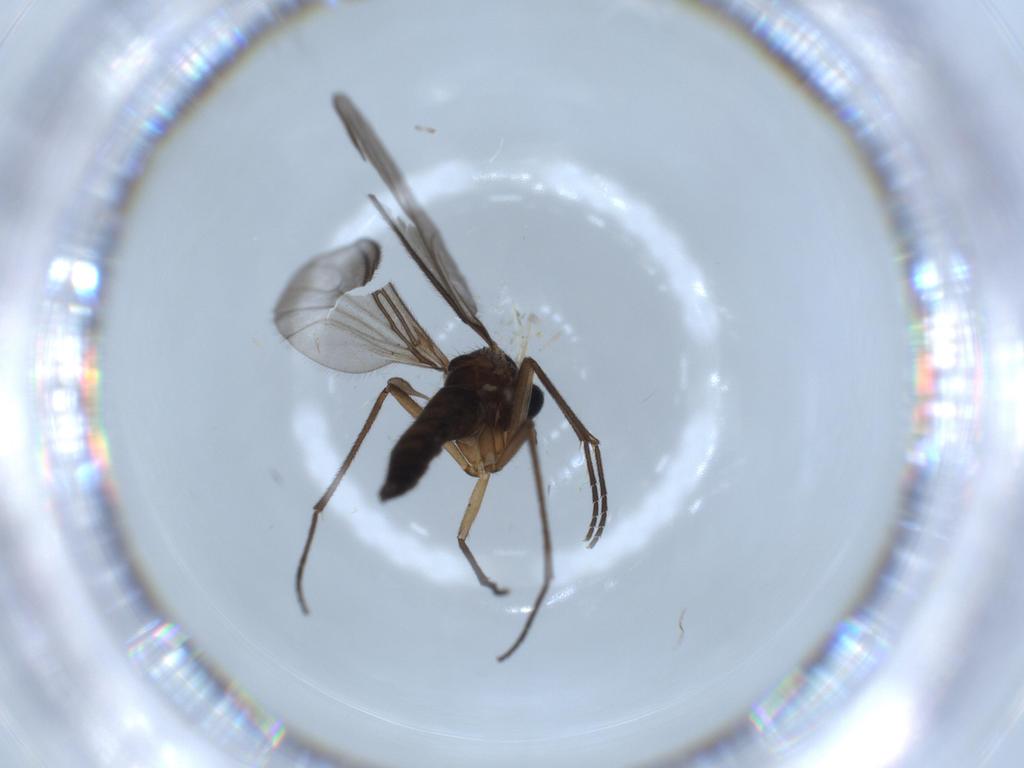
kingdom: Animalia
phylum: Arthropoda
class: Insecta
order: Diptera
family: Sciaridae
